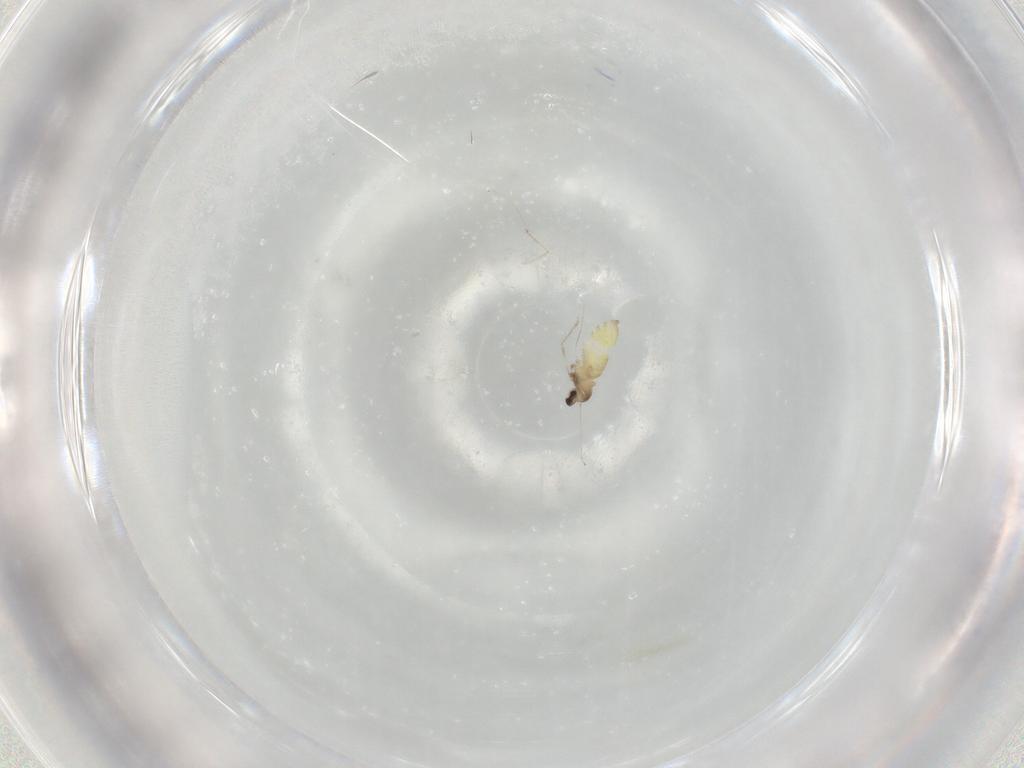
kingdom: Animalia
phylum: Arthropoda
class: Insecta
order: Diptera
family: Cecidomyiidae
